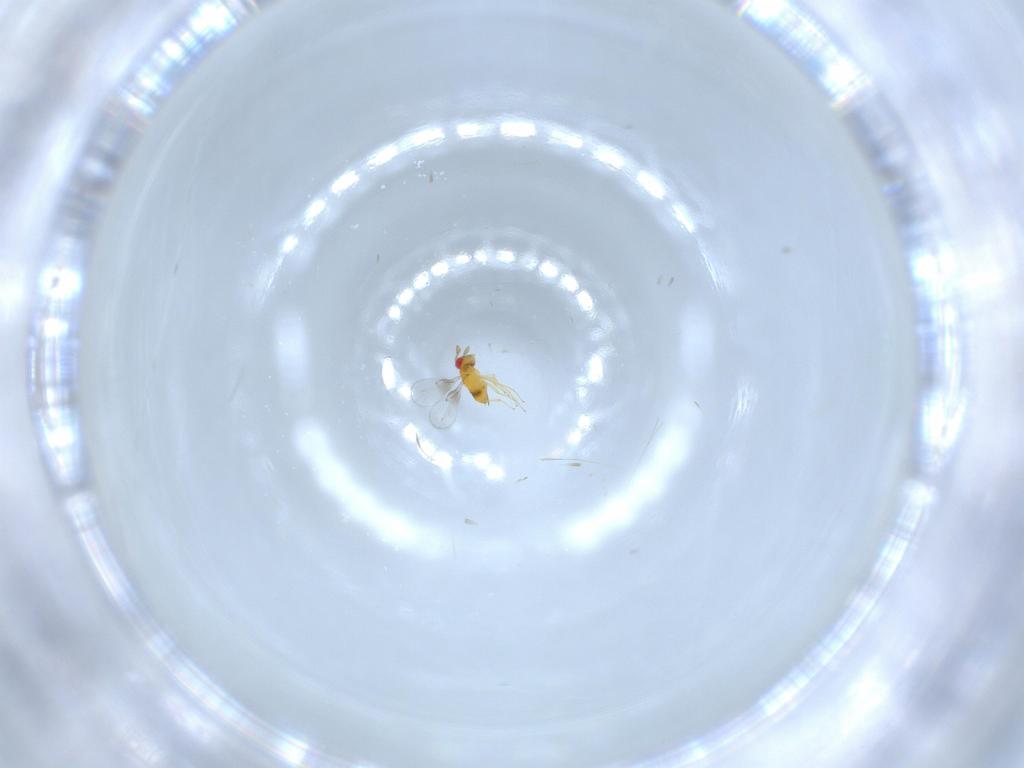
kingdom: Animalia
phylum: Arthropoda
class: Insecta
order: Hymenoptera
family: Trichogrammatidae
